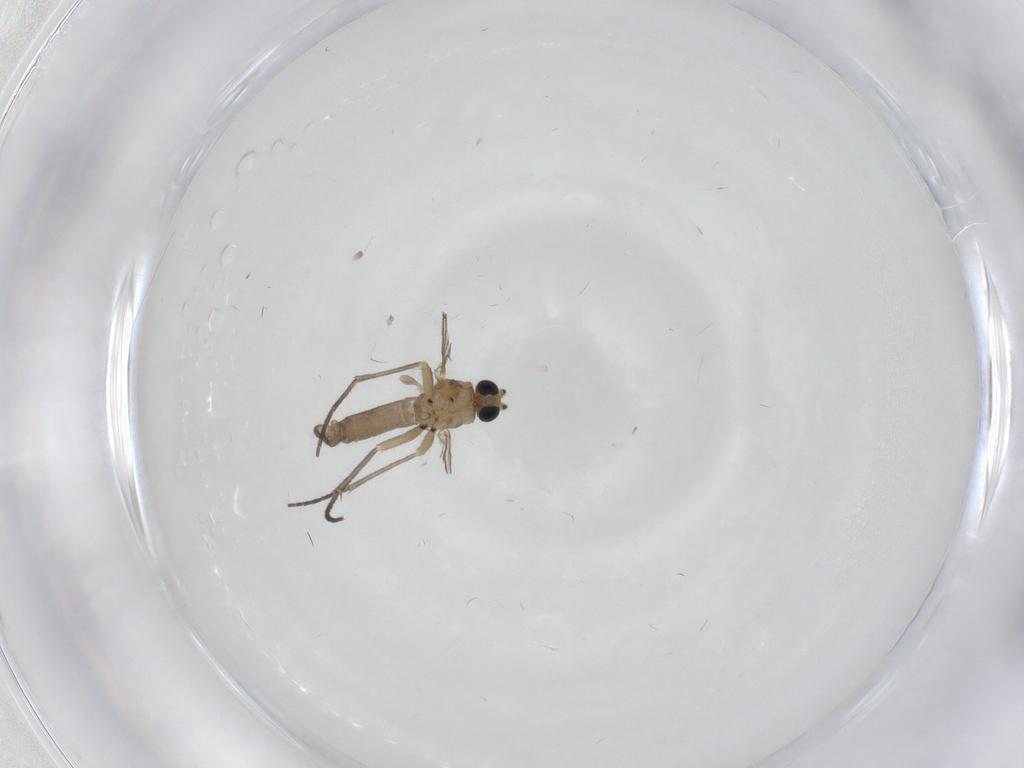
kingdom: Animalia
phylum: Arthropoda
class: Insecta
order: Diptera
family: Sciaridae
